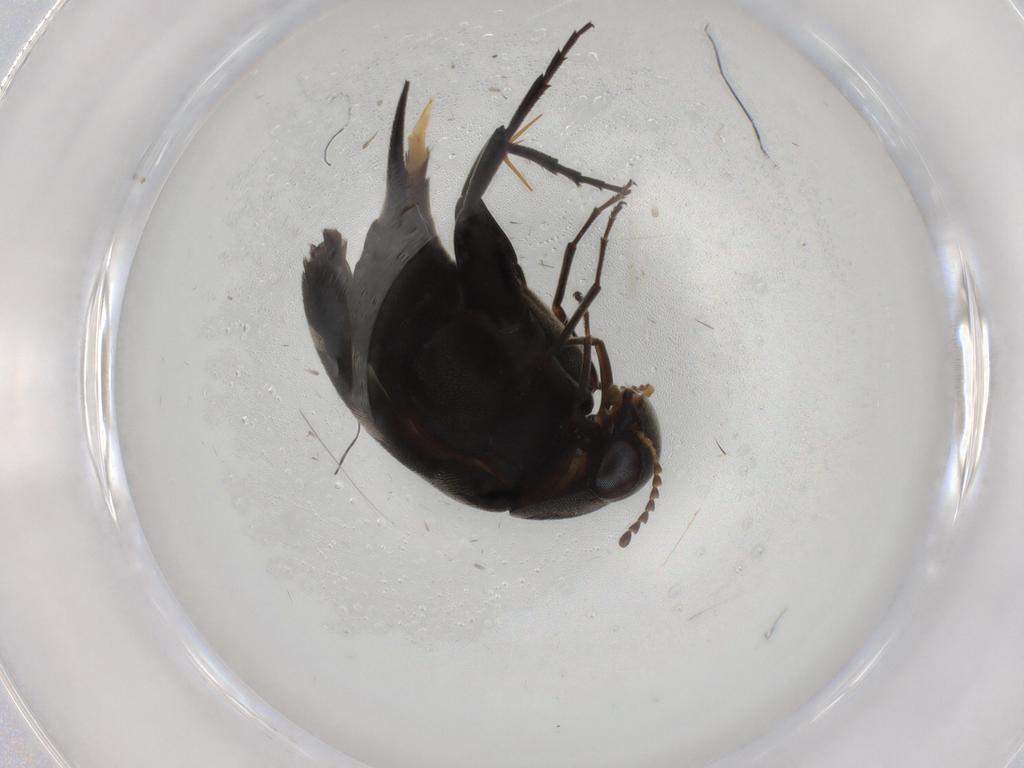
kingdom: Animalia
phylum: Arthropoda
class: Insecta
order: Coleoptera
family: Mordellidae
